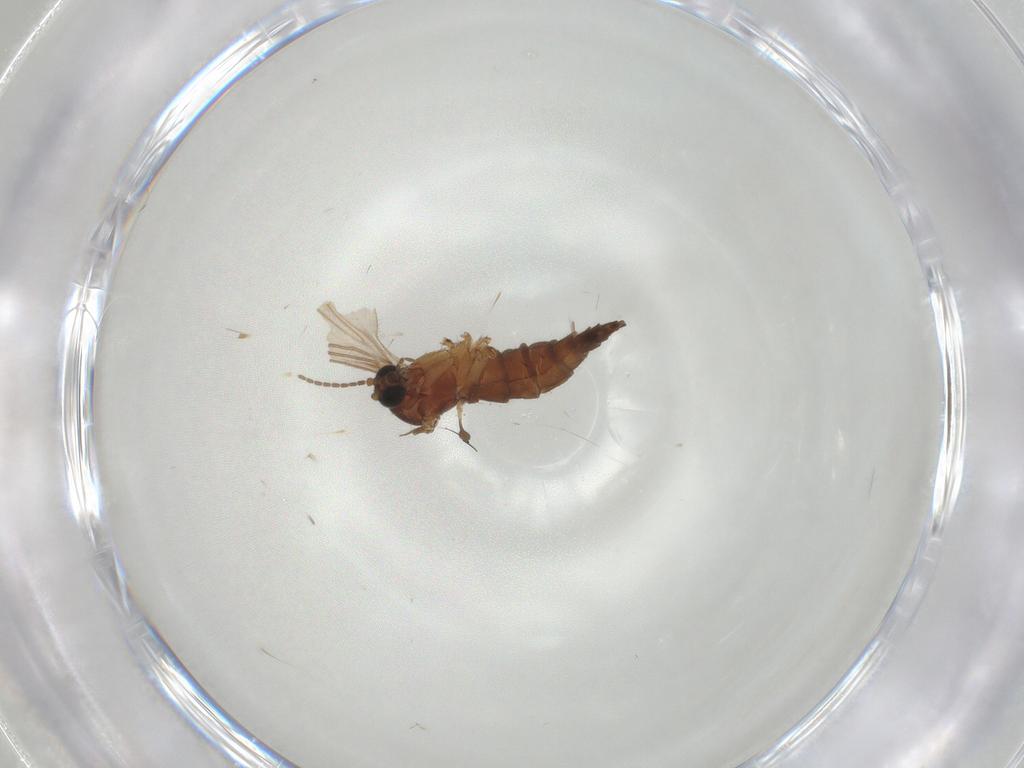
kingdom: Animalia
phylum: Arthropoda
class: Insecta
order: Diptera
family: Sciaridae
